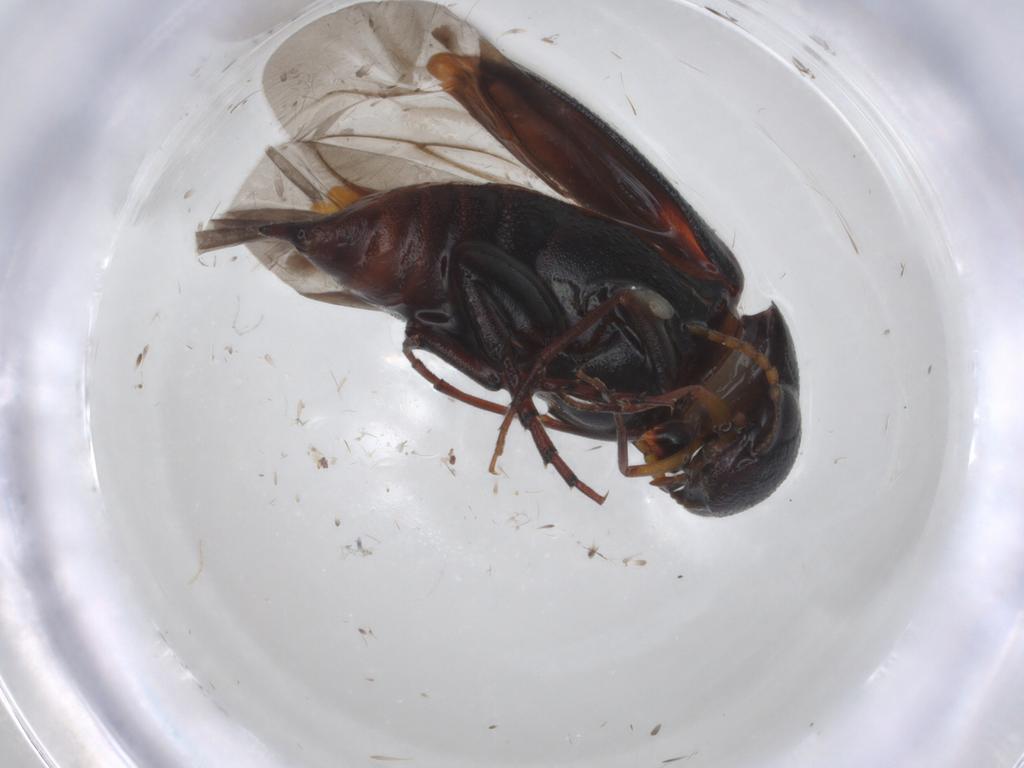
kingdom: Animalia
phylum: Arthropoda
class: Insecta
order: Coleoptera
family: Mordellidae
